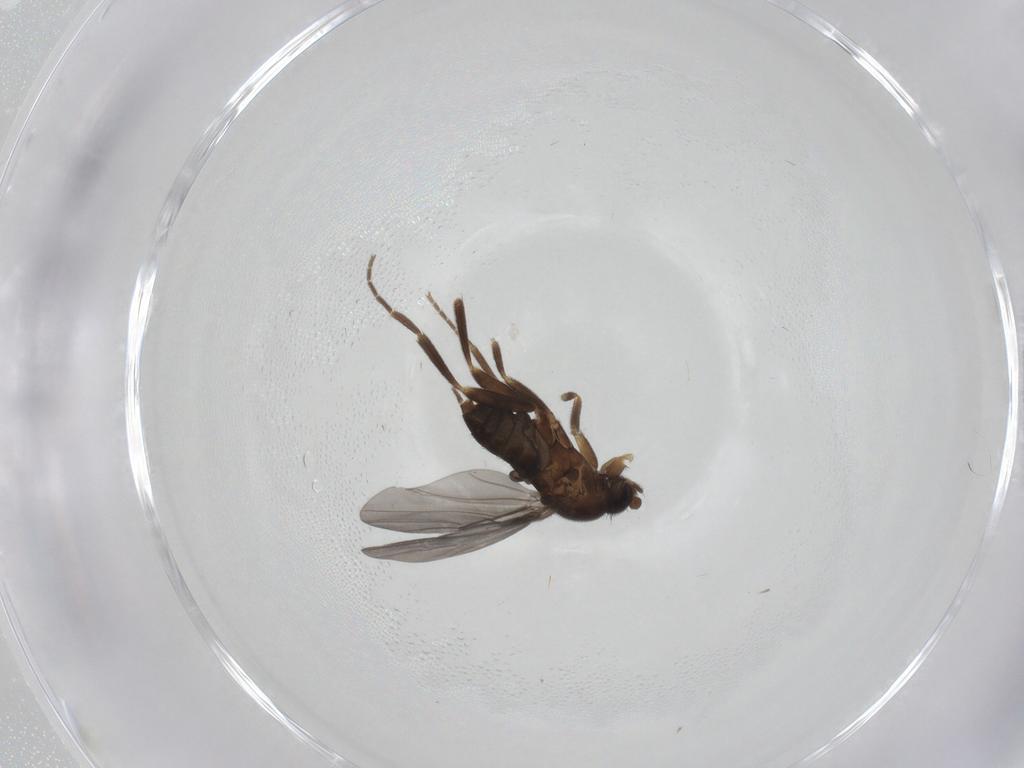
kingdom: Animalia
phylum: Arthropoda
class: Insecta
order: Diptera
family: Phoridae
